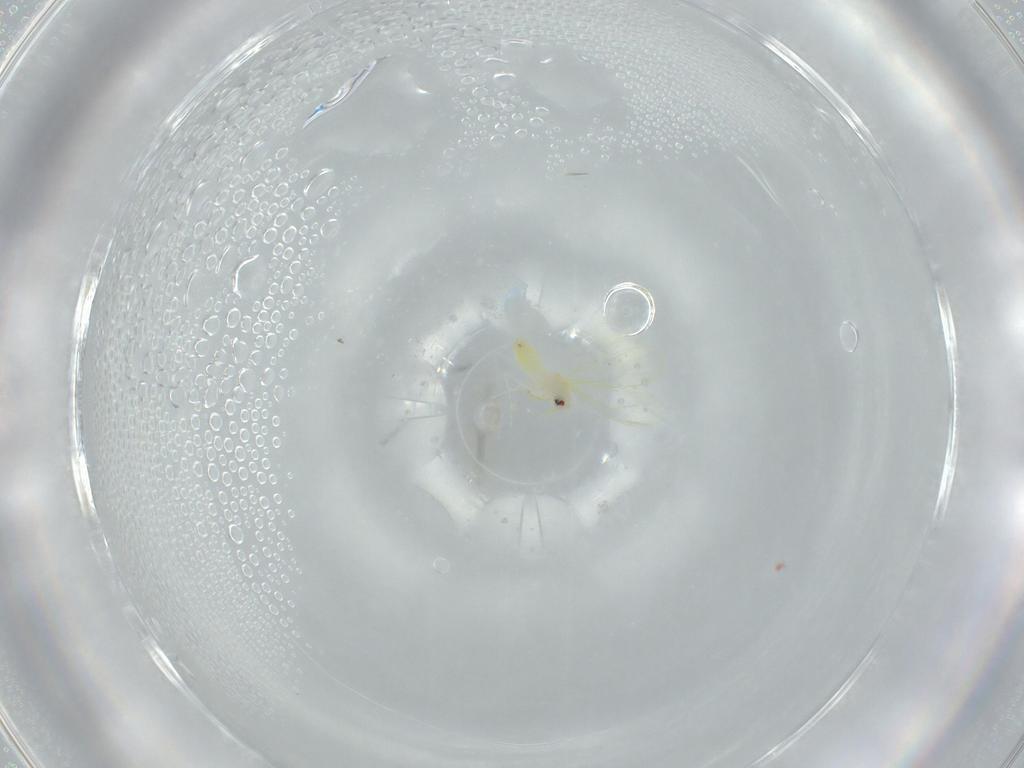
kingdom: Animalia
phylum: Arthropoda
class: Insecta
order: Hemiptera
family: Aleyrodidae
